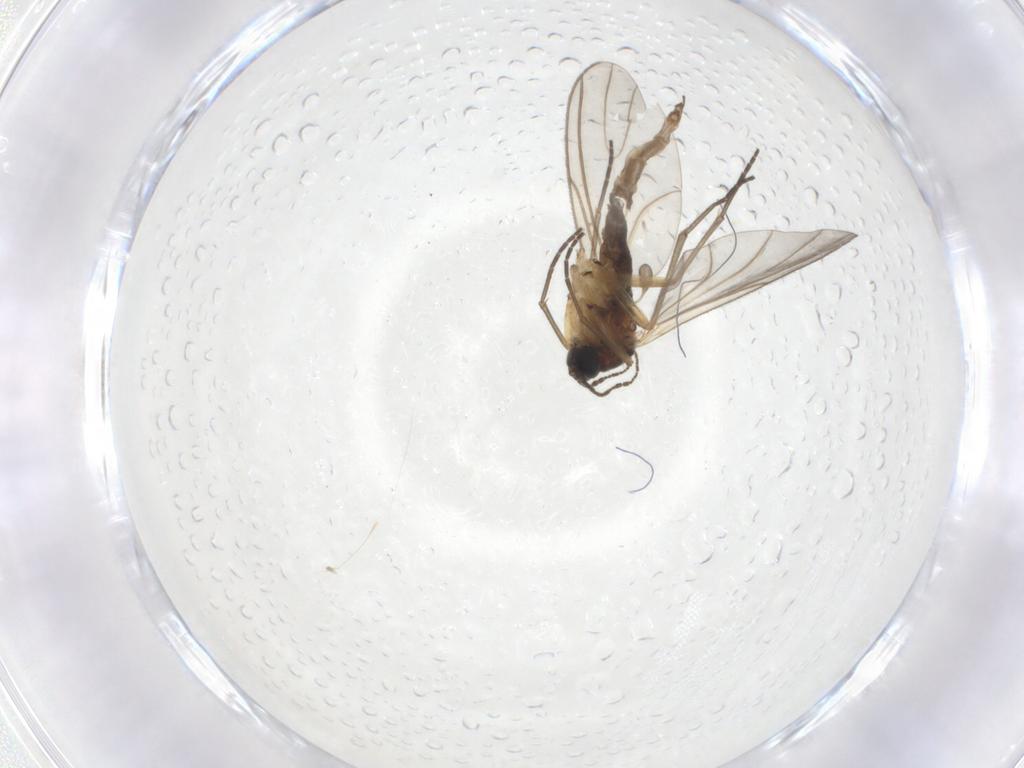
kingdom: Animalia
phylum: Arthropoda
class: Insecta
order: Diptera
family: Sciaridae
